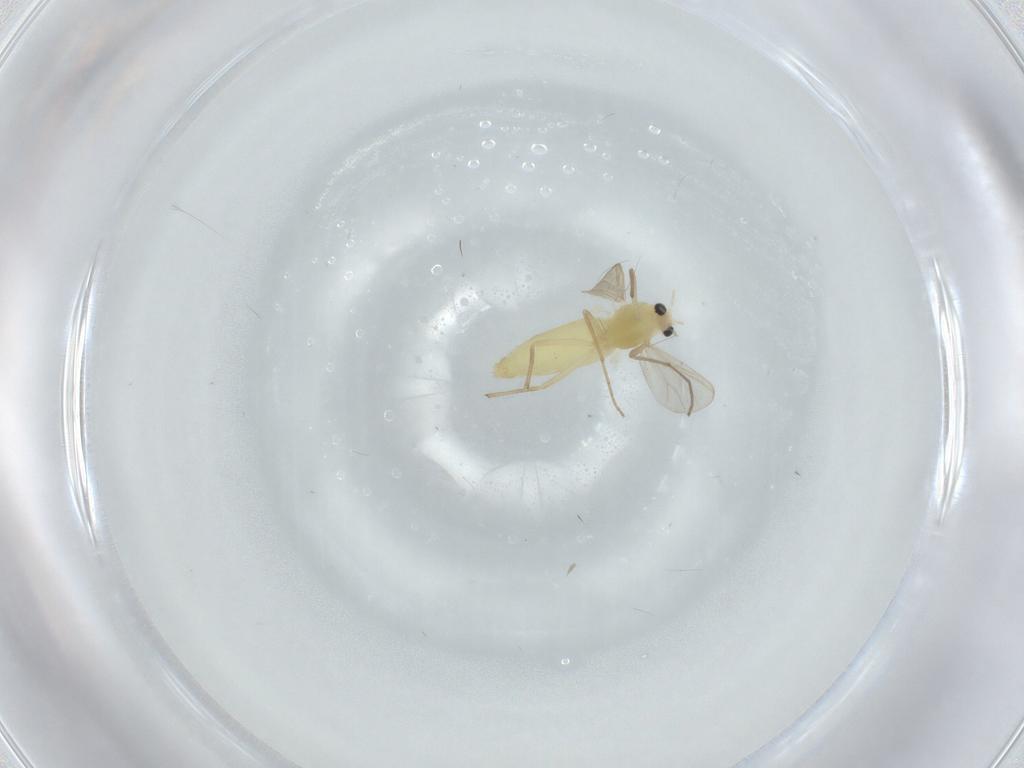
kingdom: Animalia
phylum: Arthropoda
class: Insecta
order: Diptera
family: Chironomidae
